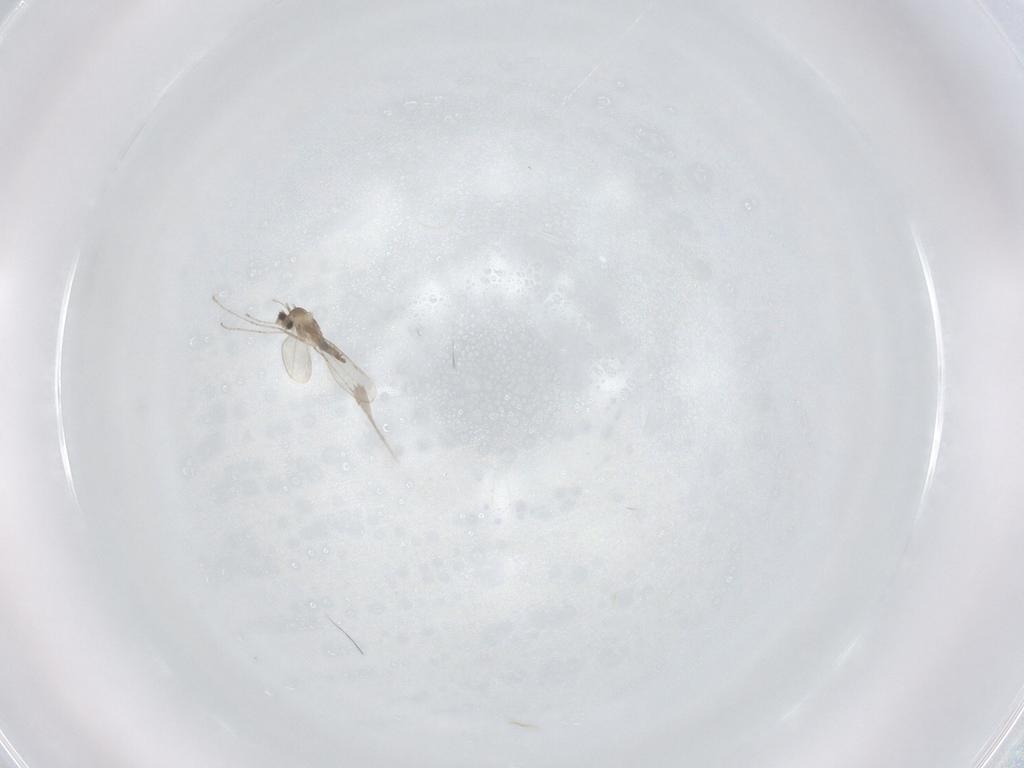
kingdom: Animalia
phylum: Arthropoda
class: Insecta
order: Diptera
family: Cecidomyiidae
